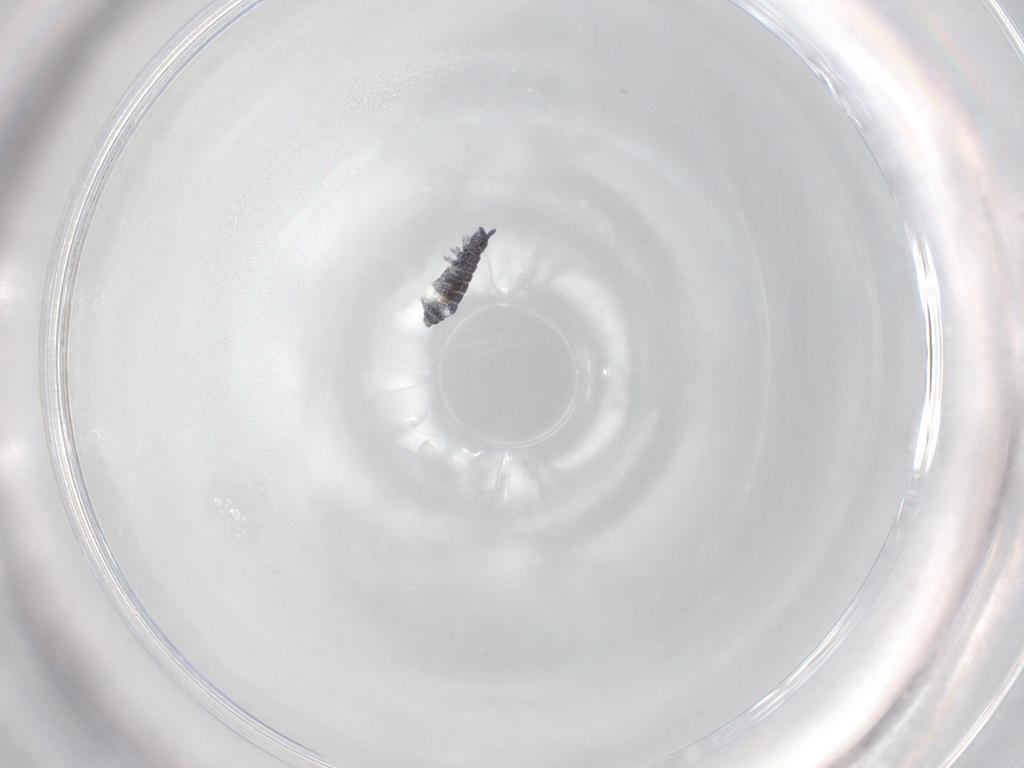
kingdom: Animalia
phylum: Arthropoda
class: Collembola
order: Poduromorpha
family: Hypogastruridae
